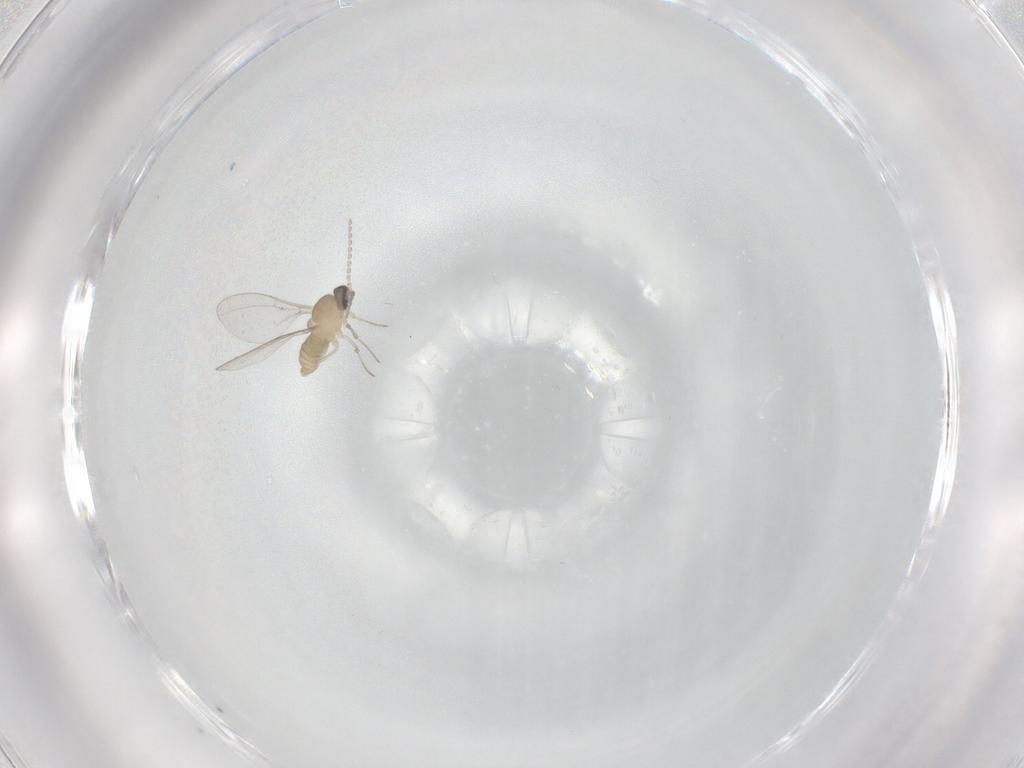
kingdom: Animalia
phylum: Arthropoda
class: Insecta
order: Diptera
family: Cecidomyiidae
